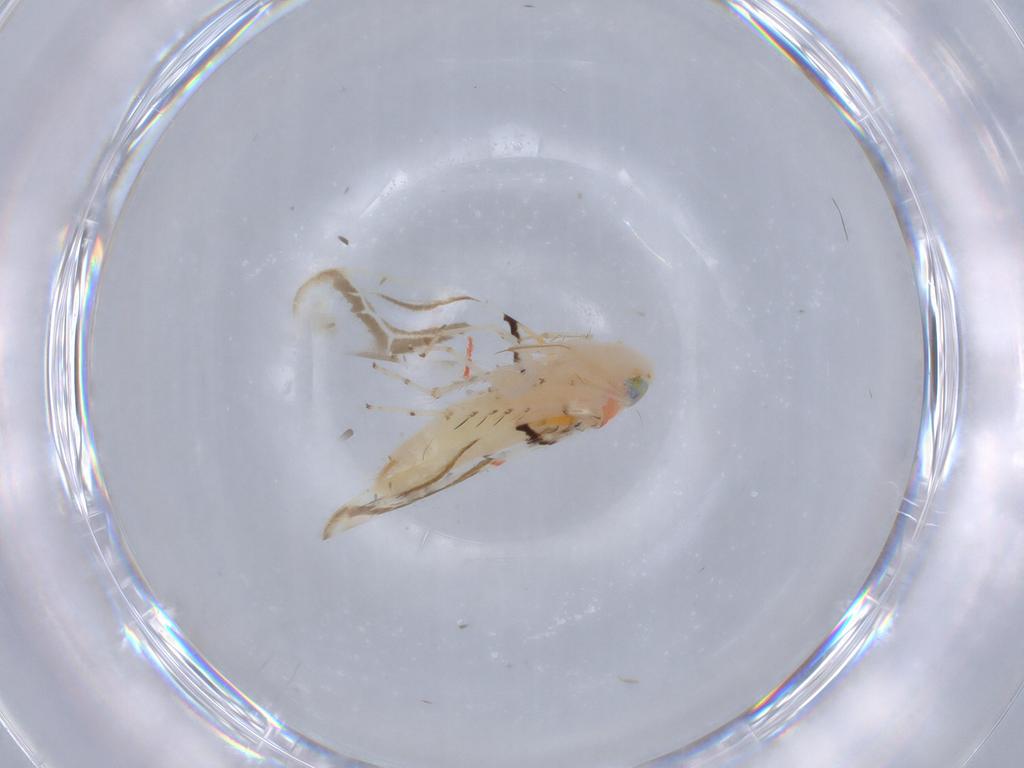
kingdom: Animalia
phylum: Arthropoda
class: Insecta
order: Hemiptera
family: Cicadellidae
